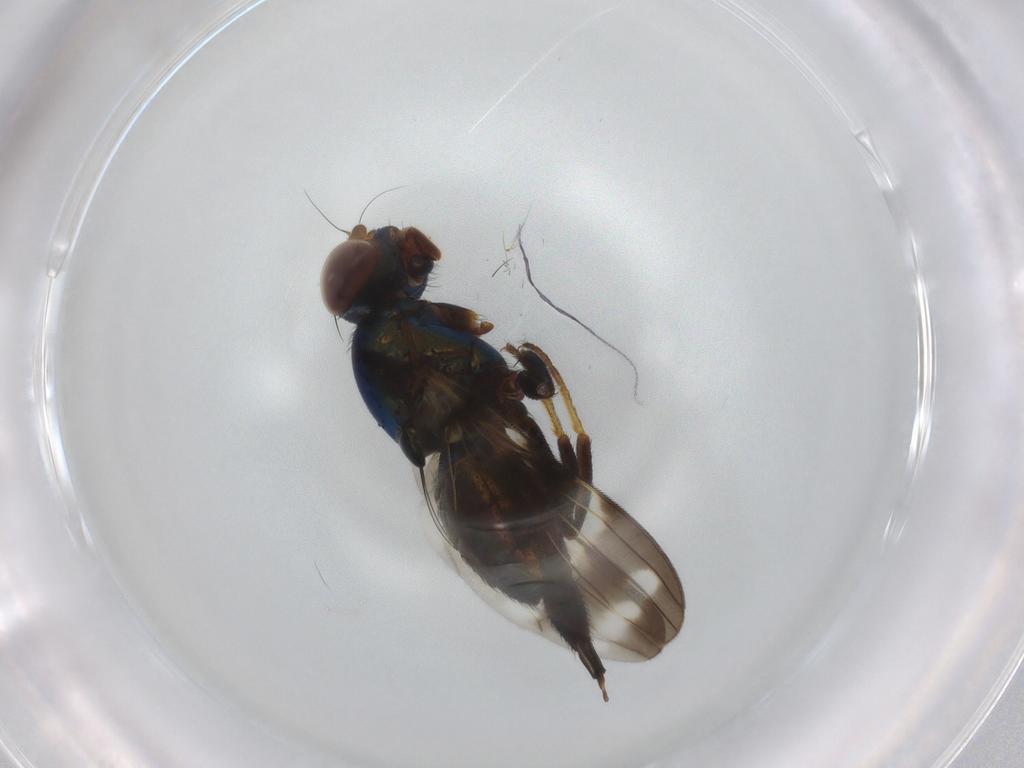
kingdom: Animalia
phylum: Arthropoda
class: Insecta
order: Diptera
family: Ulidiidae
